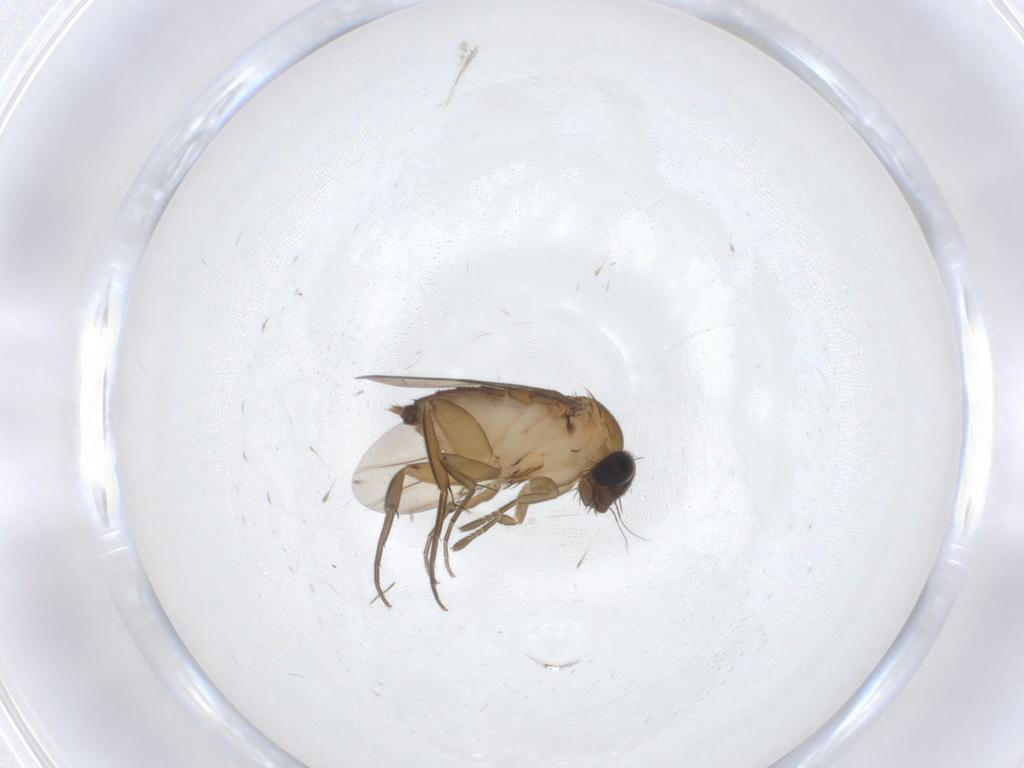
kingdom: Animalia
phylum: Arthropoda
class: Insecta
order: Diptera
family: Phoridae
